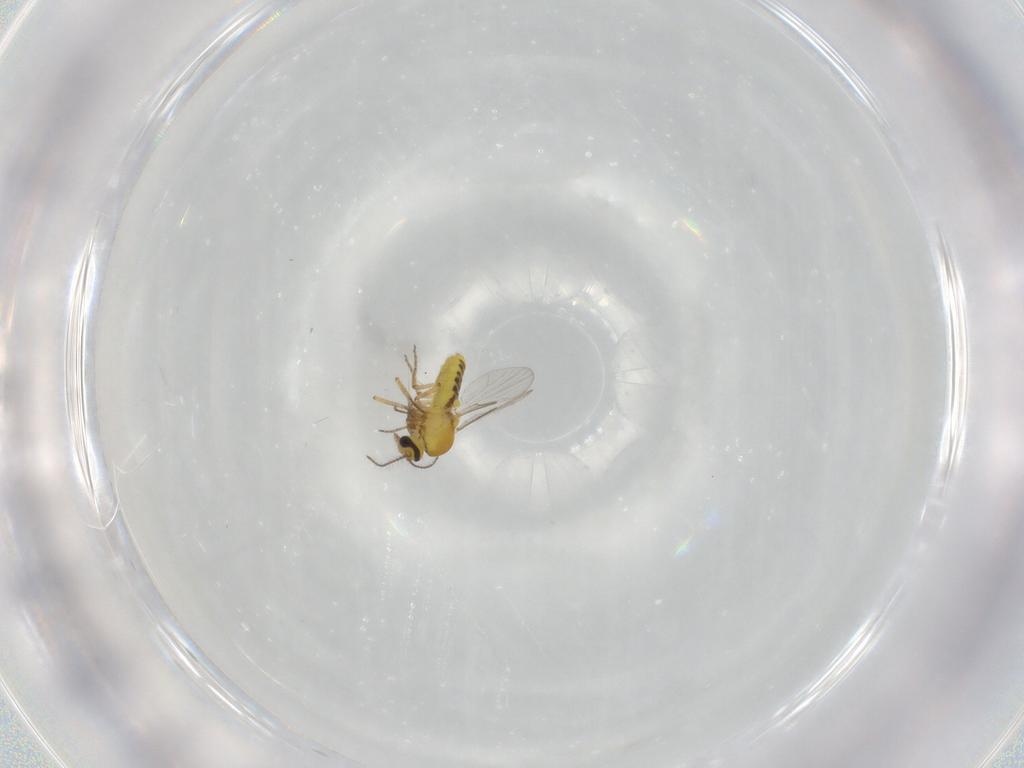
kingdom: Animalia
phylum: Arthropoda
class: Insecta
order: Diptera
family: Ceratopogonidae
